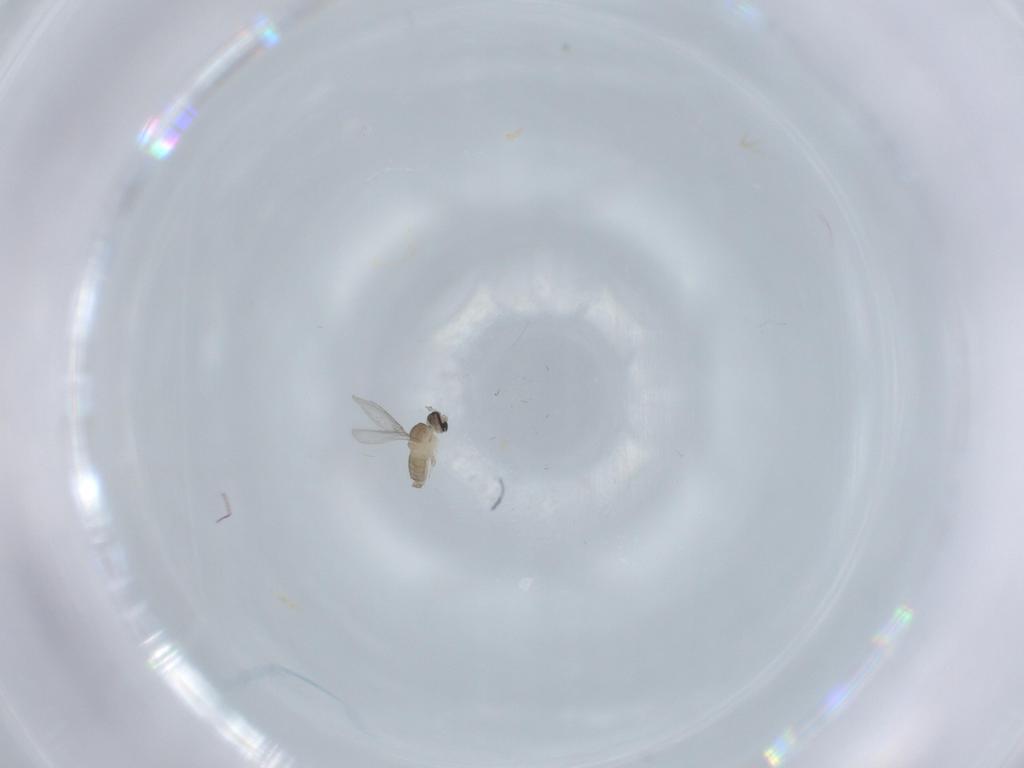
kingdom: Animalia
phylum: Arthropoda
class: Insecta
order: Diptera
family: Cecidomyiidae
